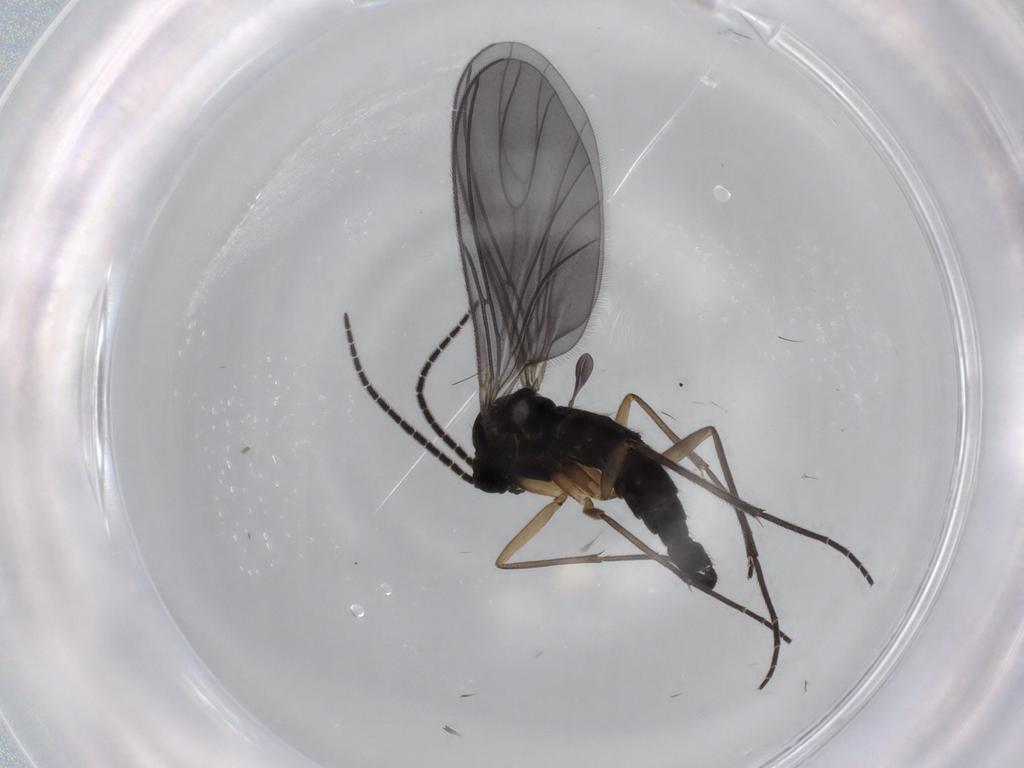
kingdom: Animalia
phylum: Arthropoda
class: Insecta
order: Diptera
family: Sciaridae
